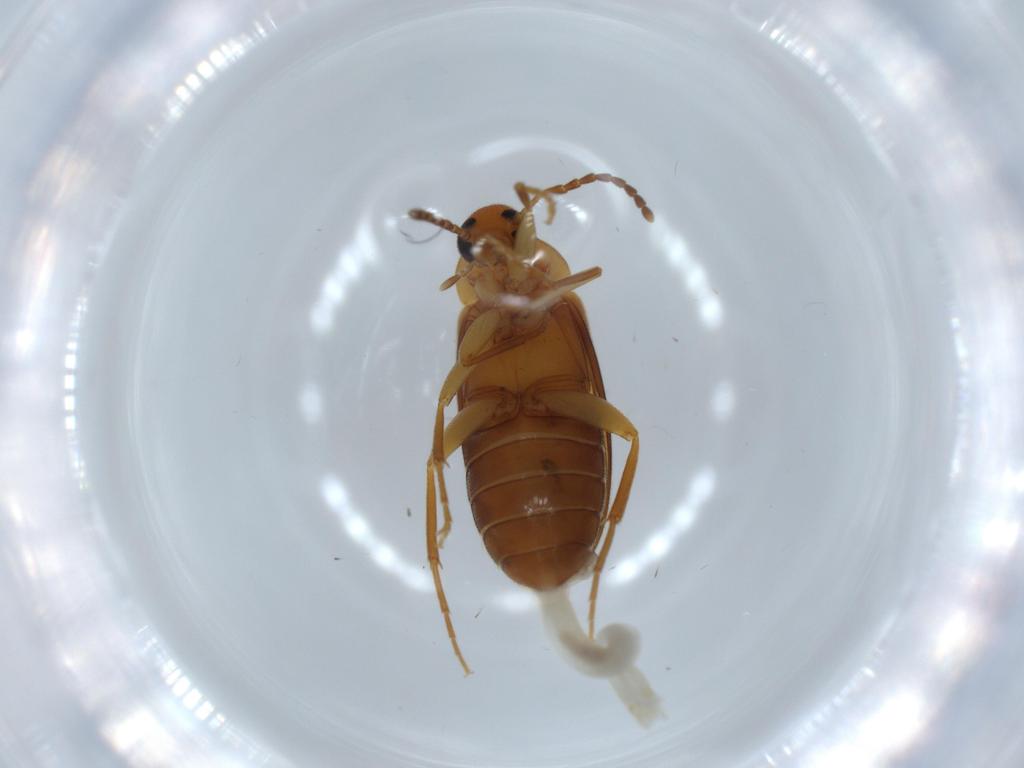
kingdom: Animalia
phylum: Arthropoda
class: Insecta
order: Coleoptera
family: Scraptiidae
